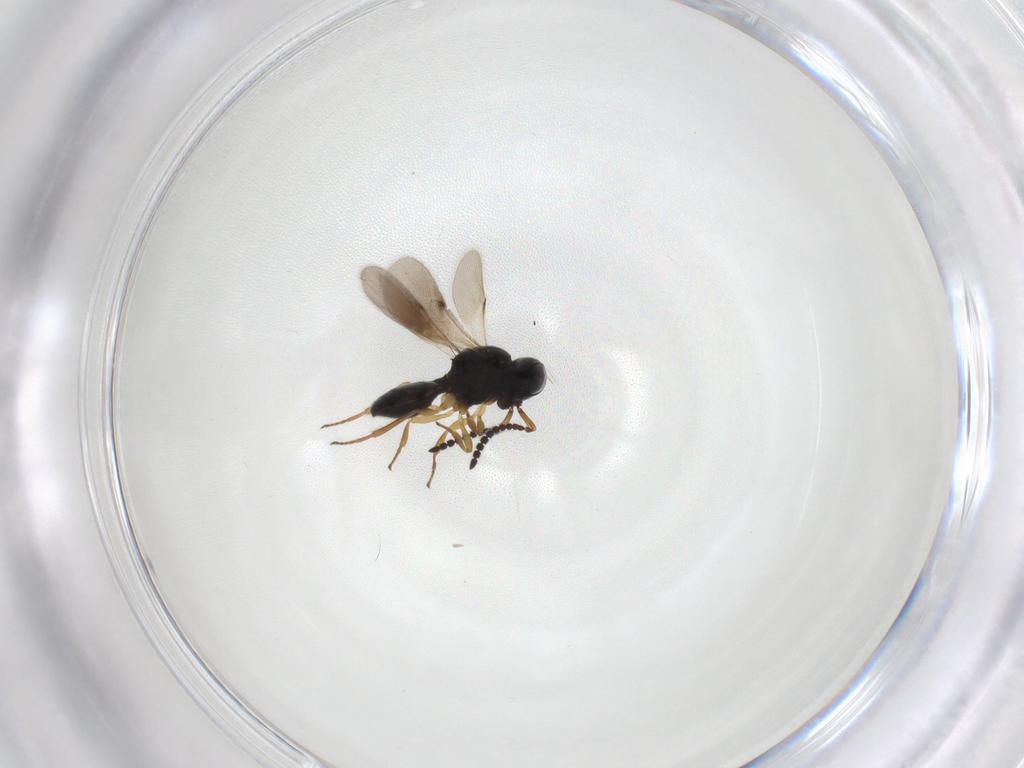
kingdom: Animalia
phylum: Arthropoda
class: Insecta
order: Hymenoptera
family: Scelionidae
